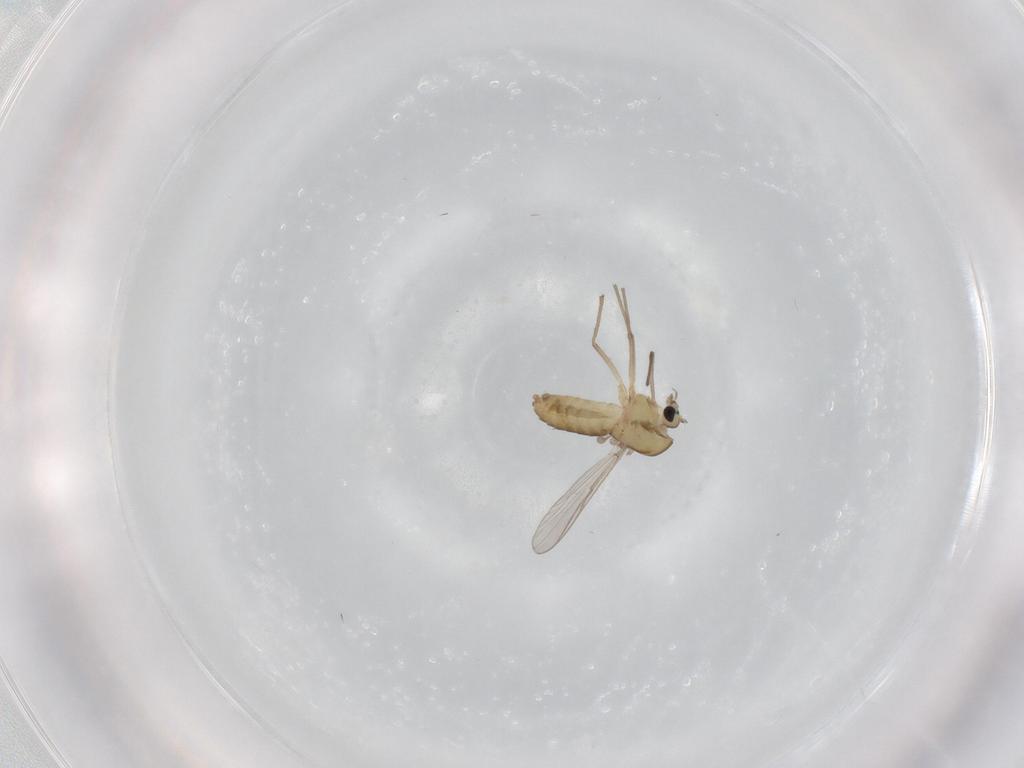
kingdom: Animalia
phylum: Arthropoda
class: Insecta
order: Diptera
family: Chironomidae
